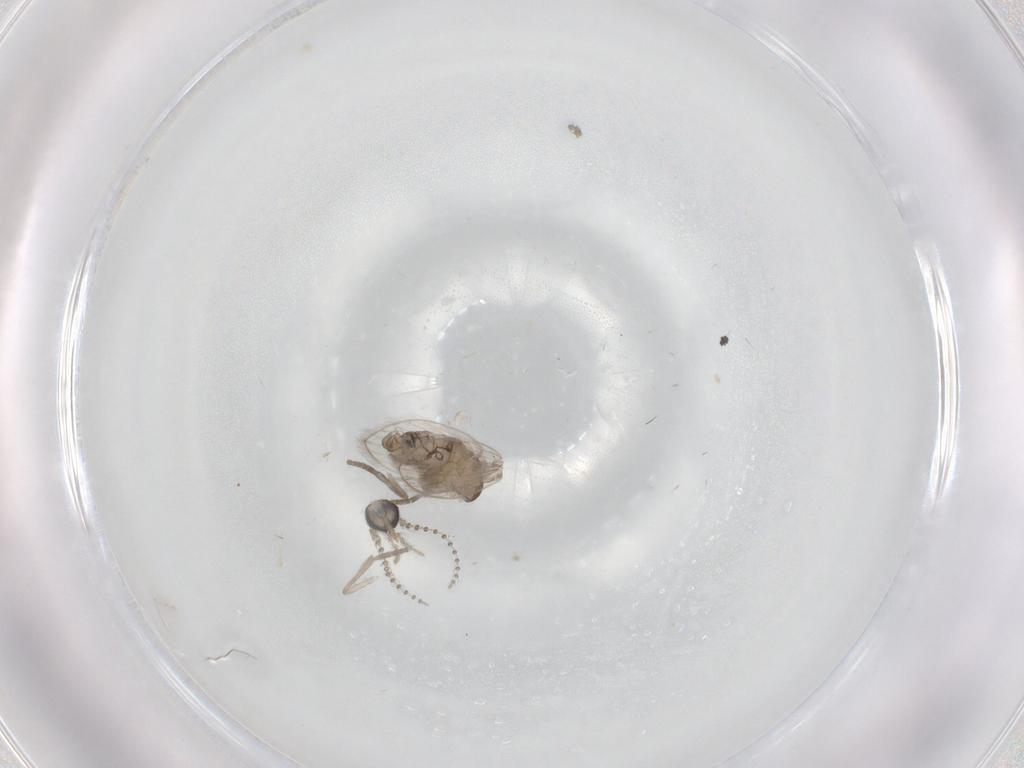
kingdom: Animalia
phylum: Arthropoda
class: Insecta
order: Diptera
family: Psychodidae
